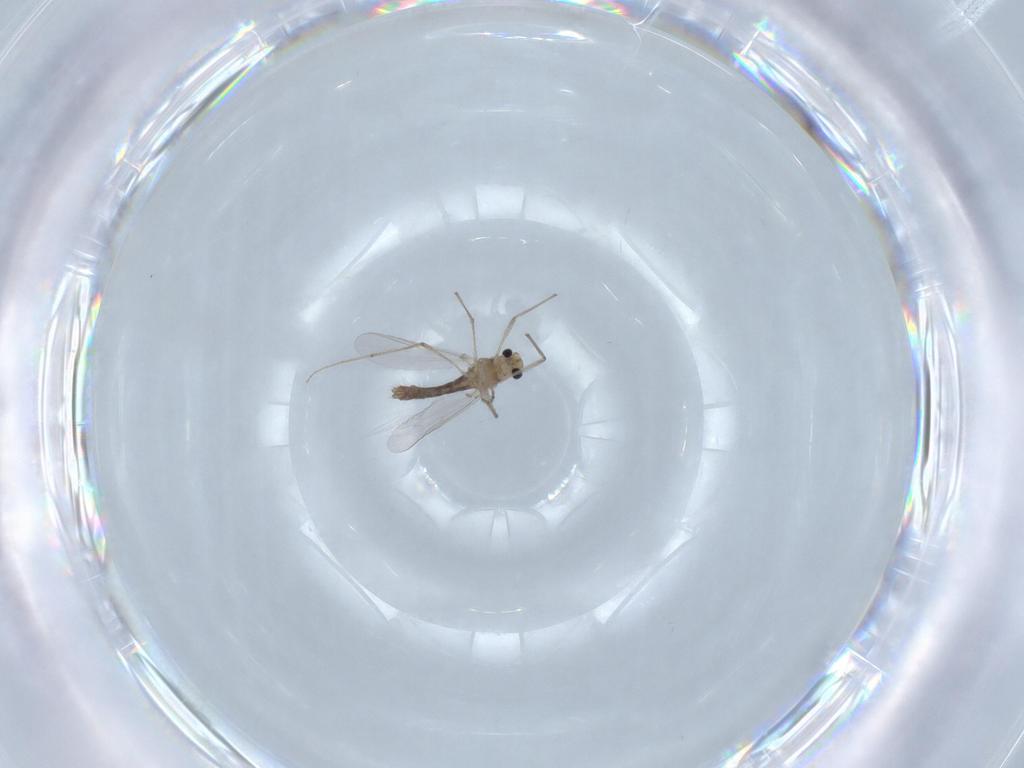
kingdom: Animalia
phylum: Arthropoda
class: Insecta
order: Diptera
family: Chironomidae
